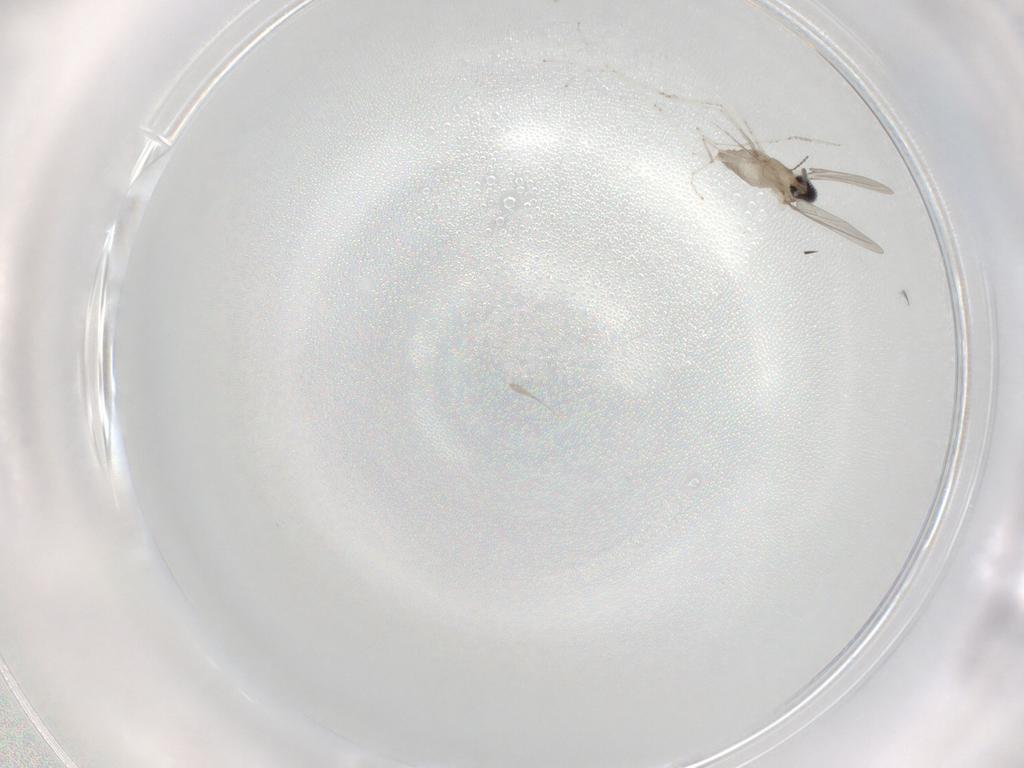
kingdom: Animalia
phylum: Arthropoda
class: Insecta
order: Diptera
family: Cecidomyiidae
